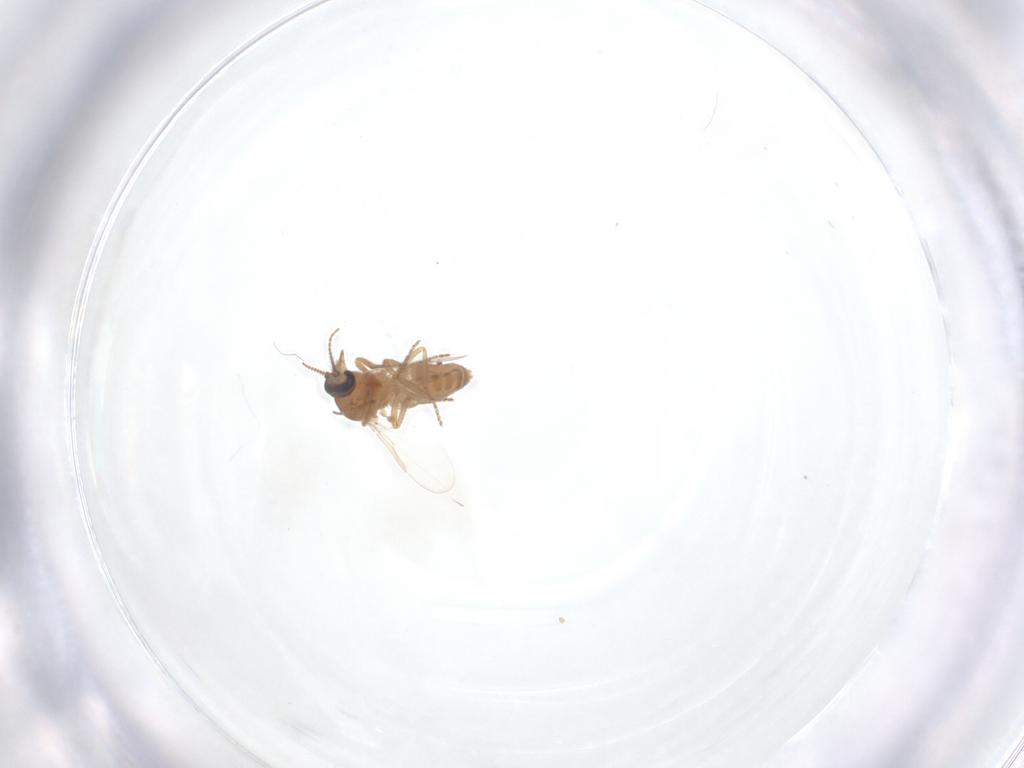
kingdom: Animalia
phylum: Arthropoda
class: Insecta
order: Diptera
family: Ceratopogonidae
